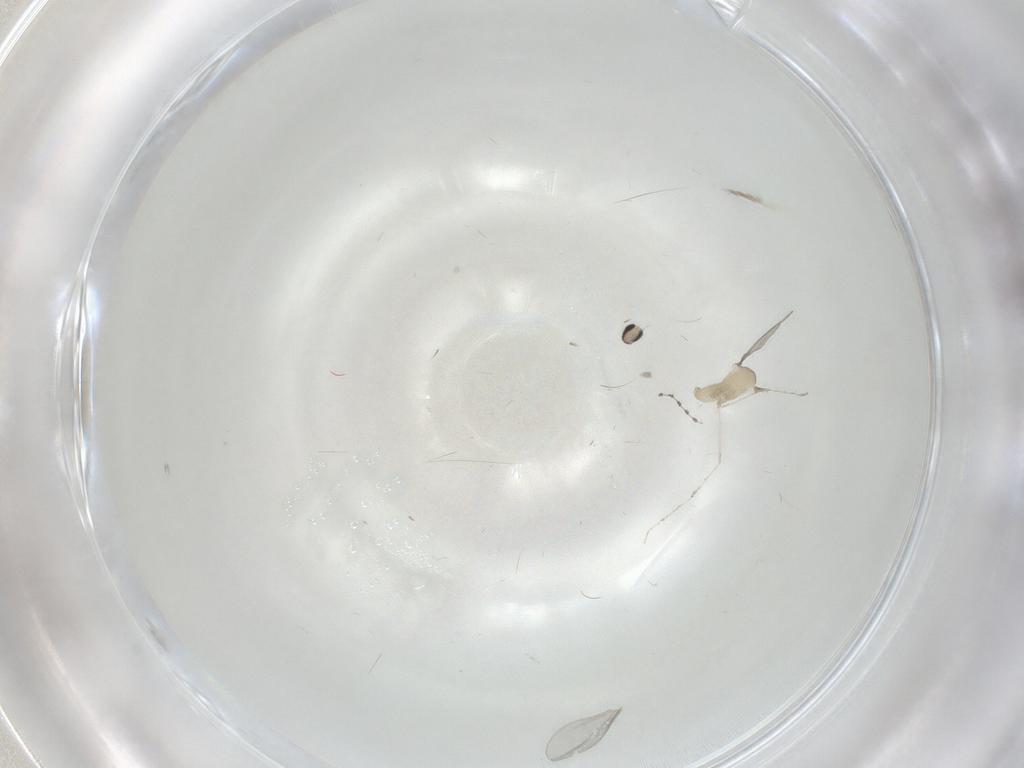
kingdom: Animalia
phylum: Arthropoda
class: Insecta
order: Diptera
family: Cecidomyiidae
